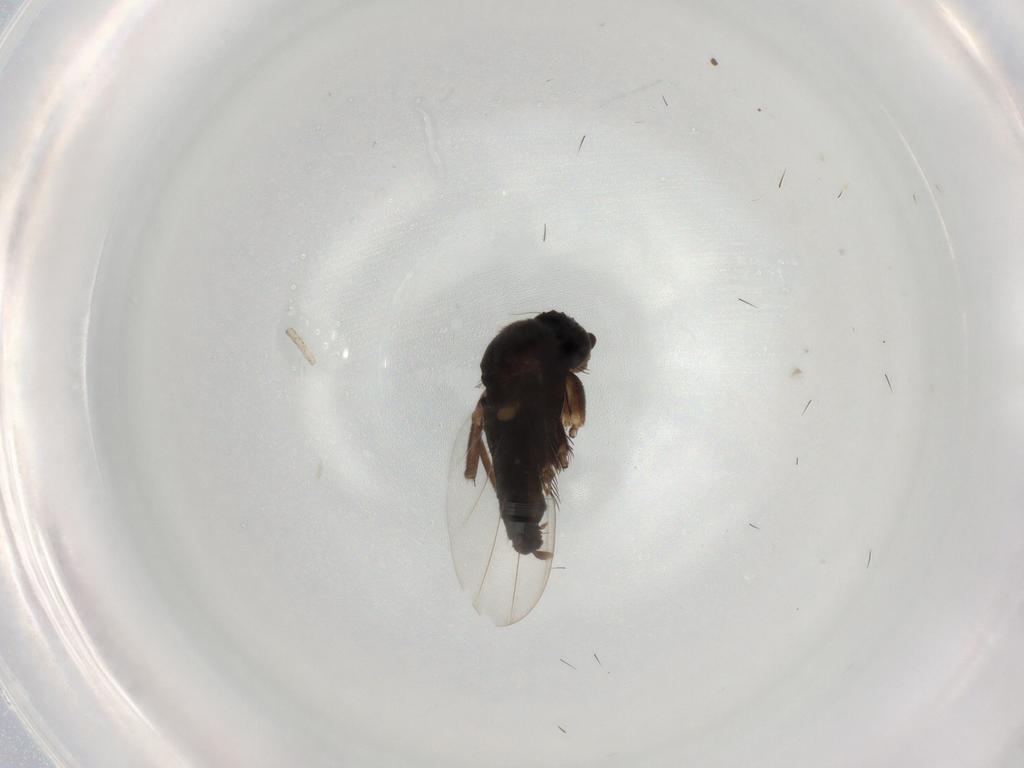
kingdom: Animalia
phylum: Arthropoda
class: Insecta
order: Diptera
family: Phoridae
